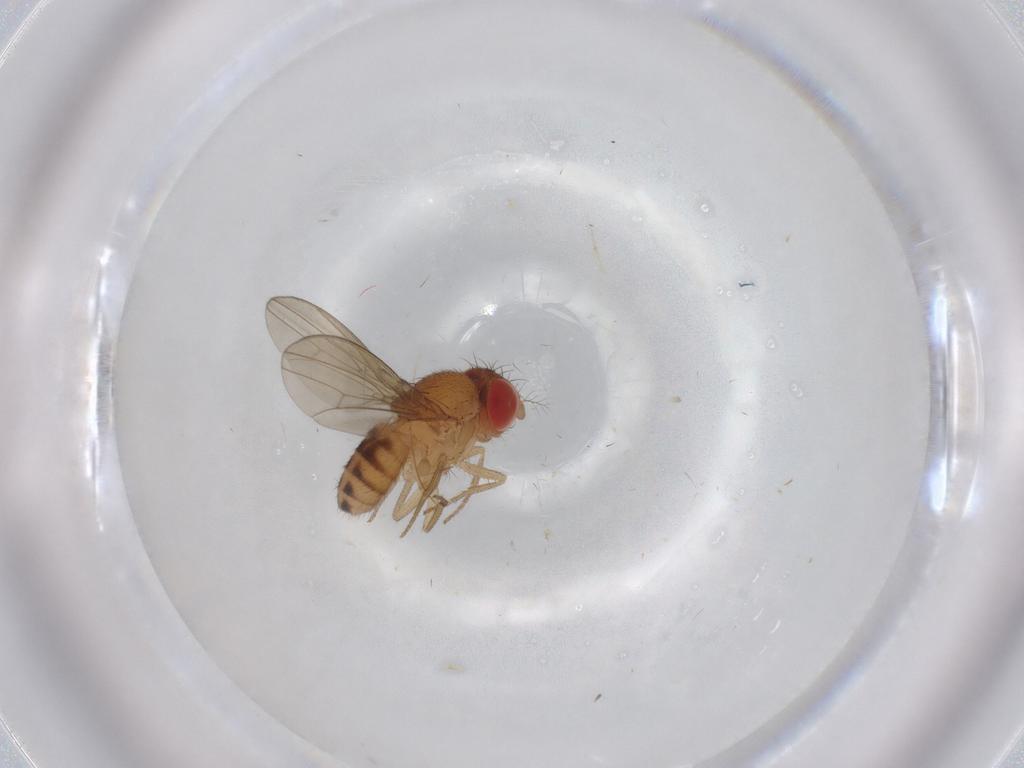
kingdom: Animalia
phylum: Arthropoda
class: Insecta
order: Diptera
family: Drosophilidae
